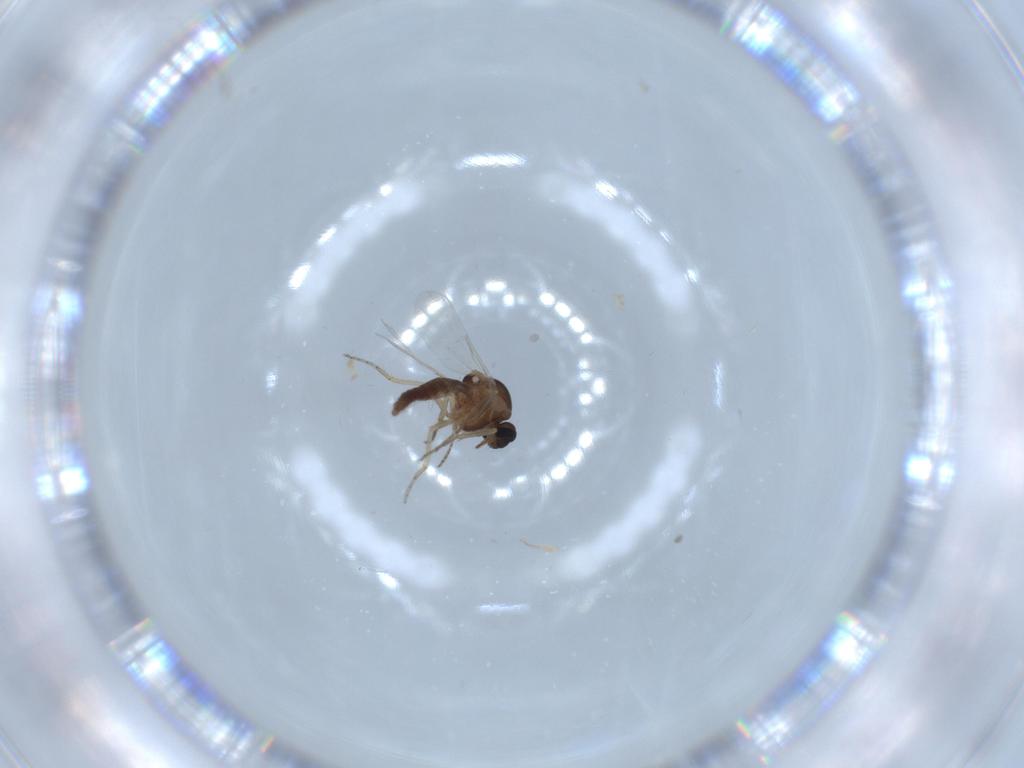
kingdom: Animalia
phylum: Arthropoda
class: Insecta
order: Diptera
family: Ceratopogonidae
